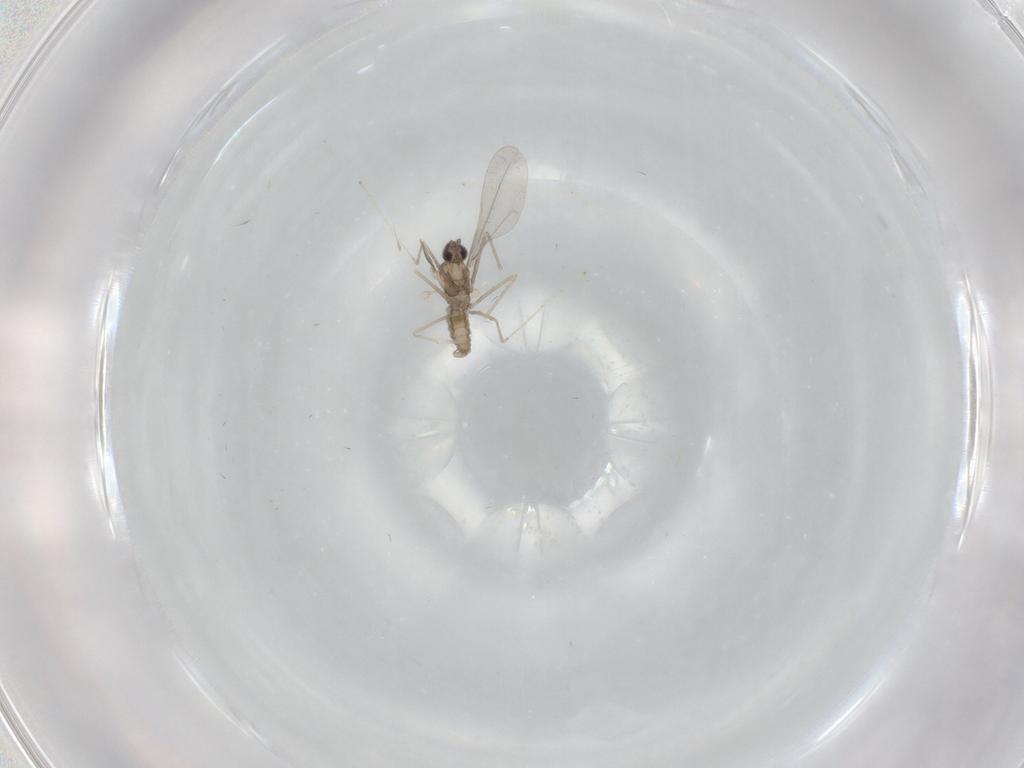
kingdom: Animalia
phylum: Arthropoda
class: Insecta
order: Diptera
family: Cecidomyiidae
